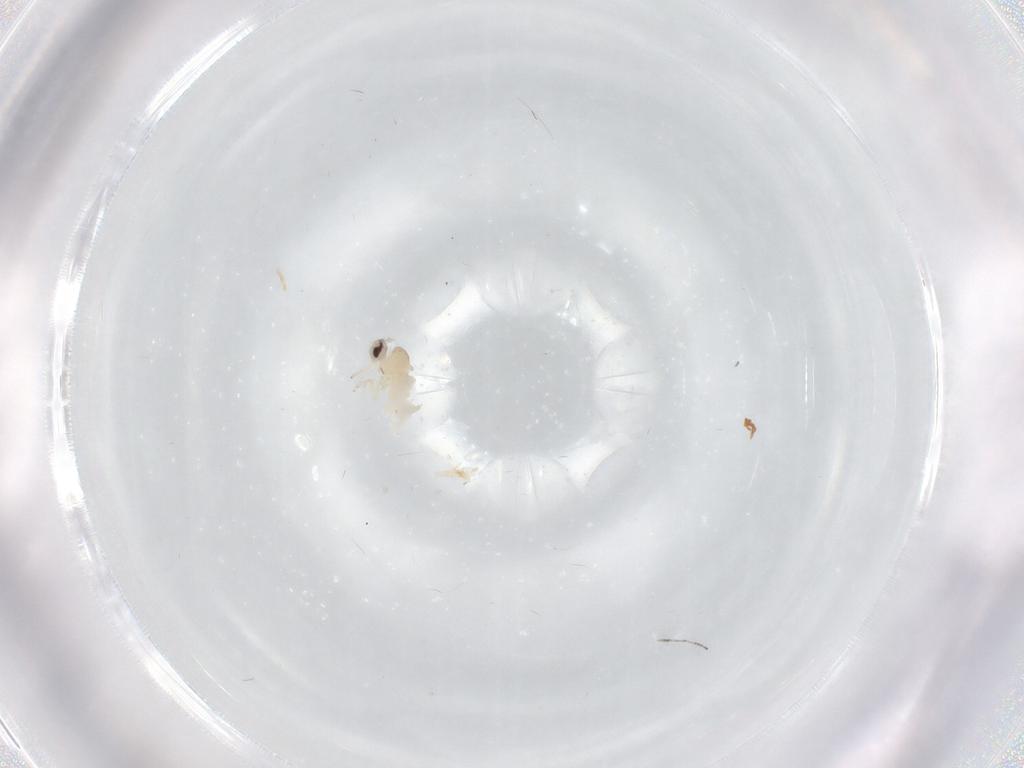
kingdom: Animalia
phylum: Arthropoda
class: Insecta
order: Diptera
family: Cecidomyiidae
